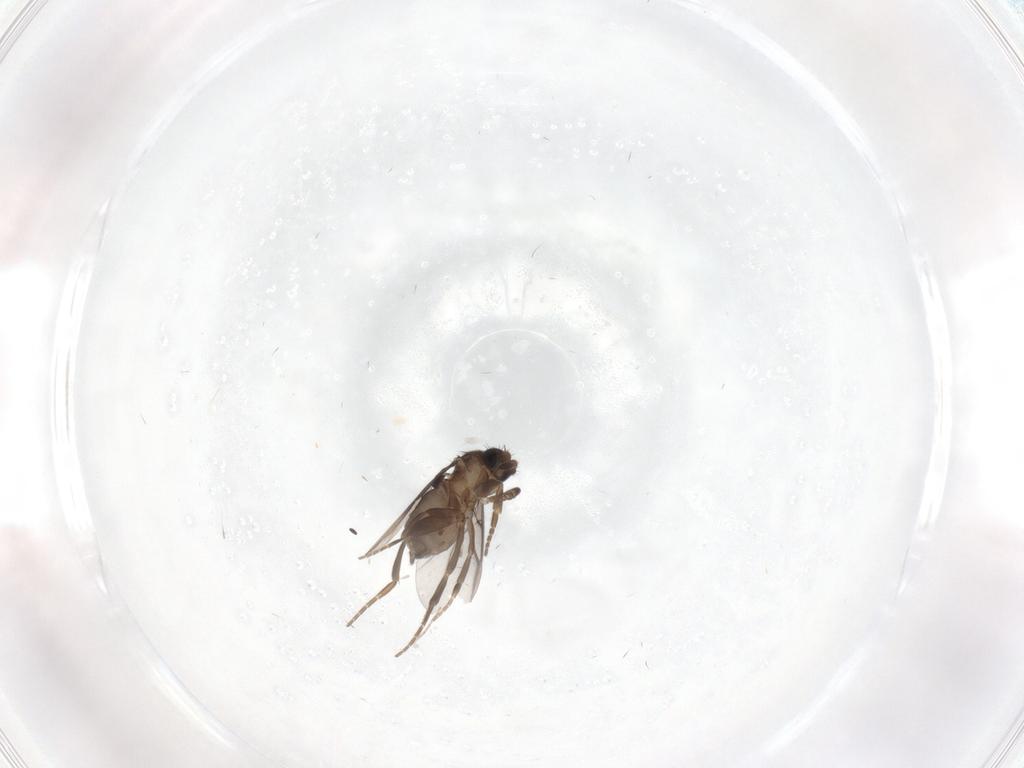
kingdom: Animalia
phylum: Arthropoda
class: Insecta
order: Diptera
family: Phoridae
